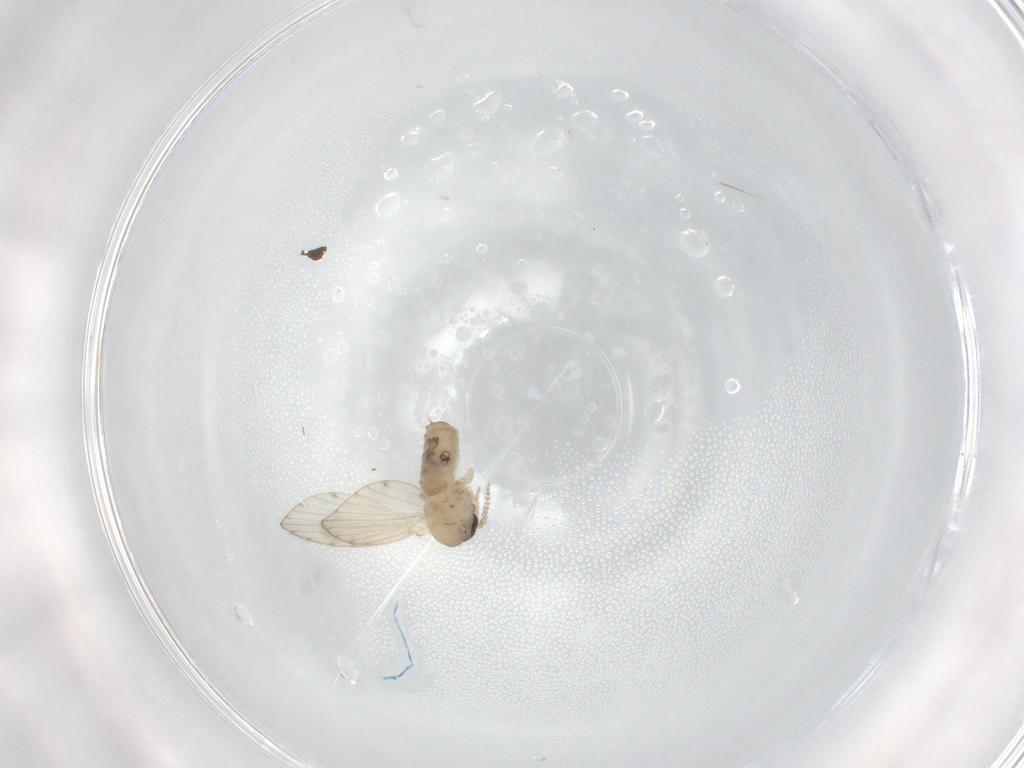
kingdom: Animalia
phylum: Arthropoda
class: Insecta
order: Diptera
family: Psychodidae
